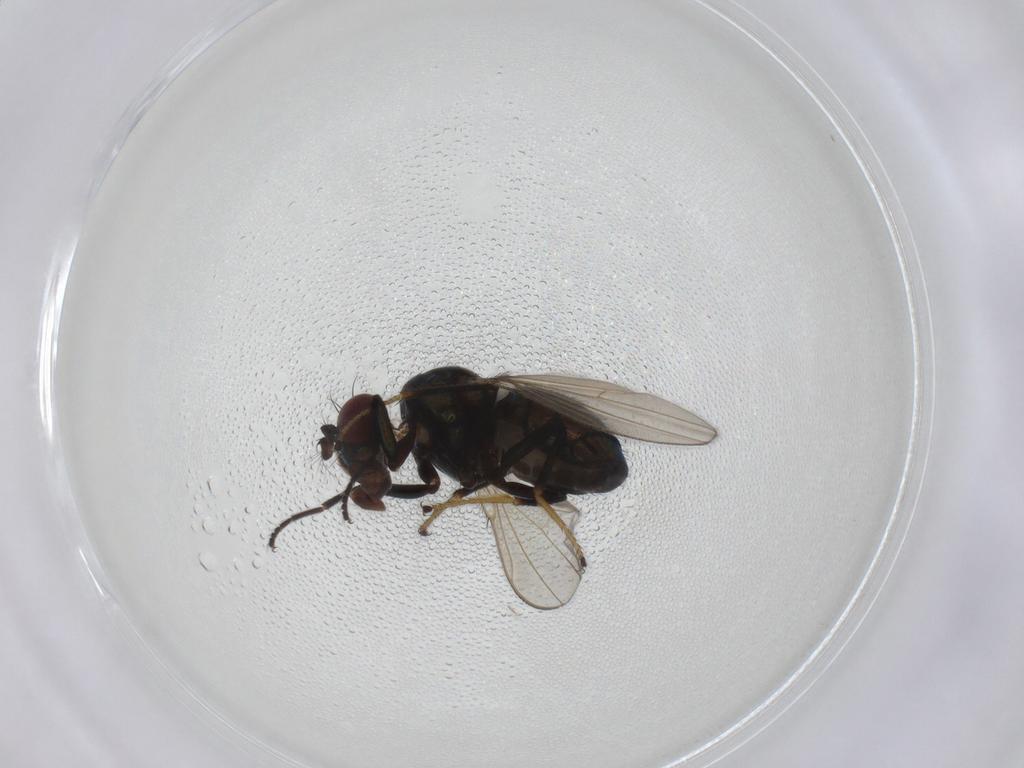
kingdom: Animalia
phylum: Arthropoda
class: Insecta
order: Diptera
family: Ephydridae
